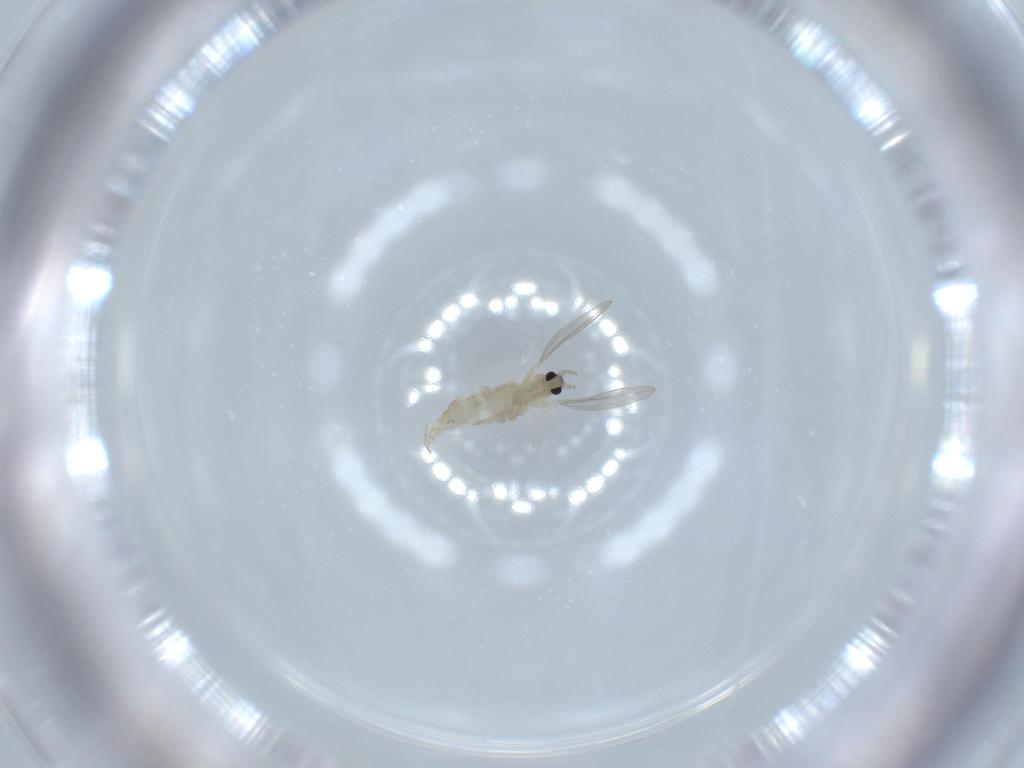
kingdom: Animalia
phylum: Arthropoda
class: Insecta
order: Diptera
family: Cecidomyiidae
